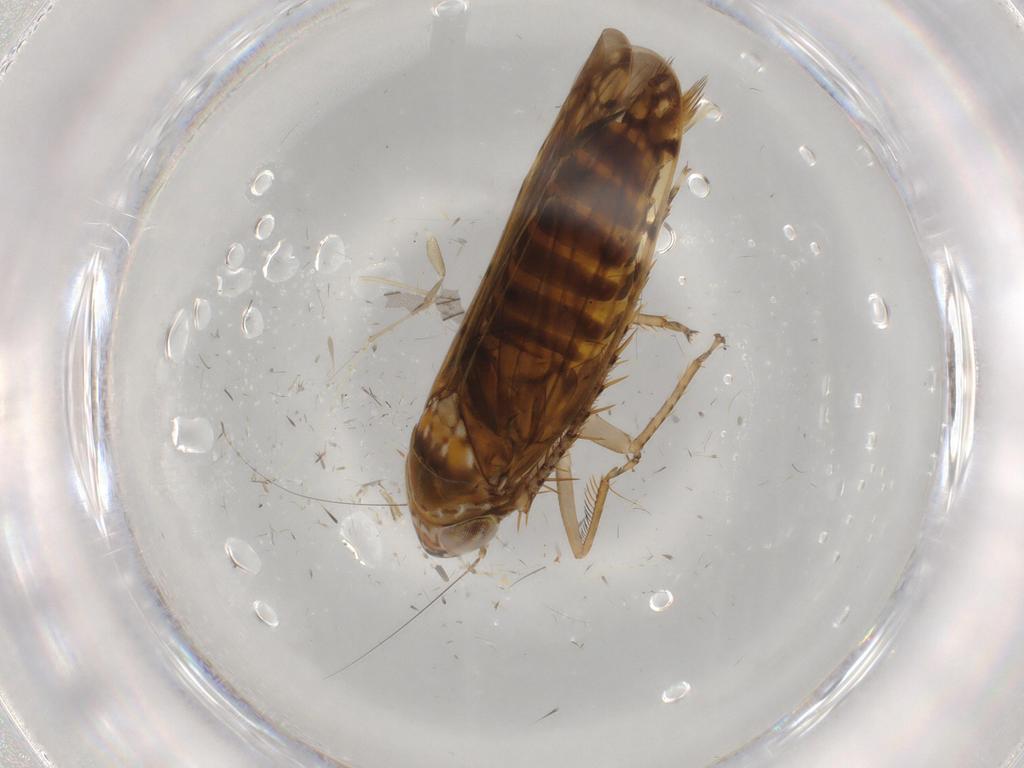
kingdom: Animalia
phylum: Arthropoda
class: Insecta
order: Hemiptera
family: Cicadellidae
